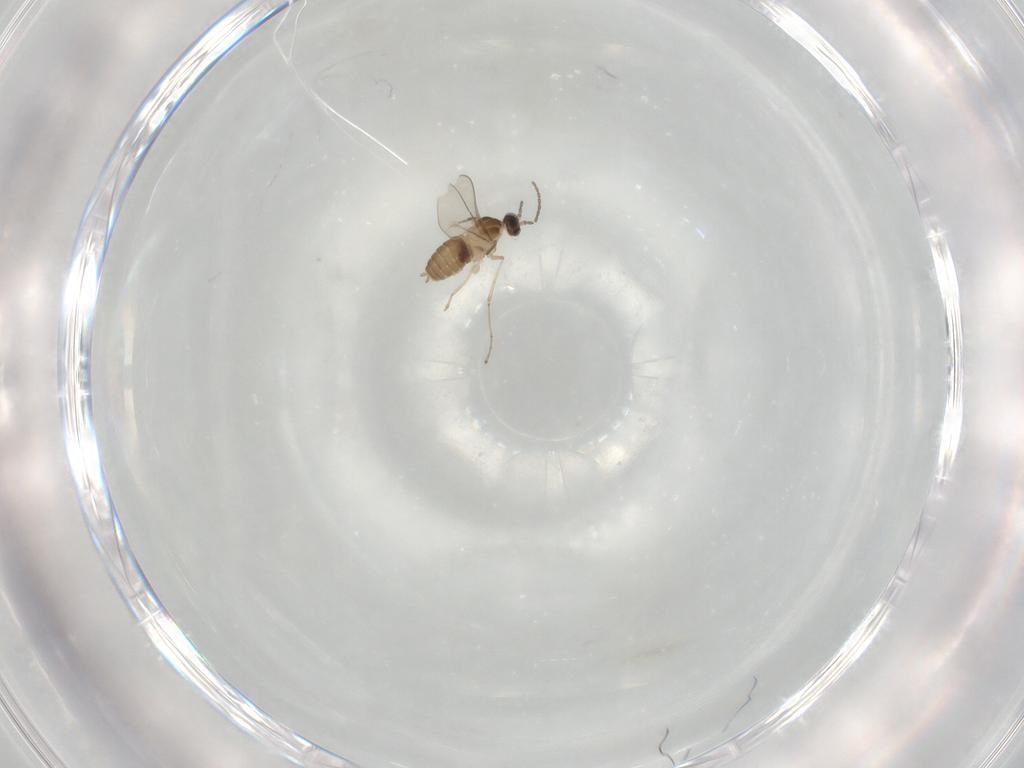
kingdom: Animalia
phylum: Arthropoda
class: Insecta
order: Diptera
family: Cecidomyiidae
